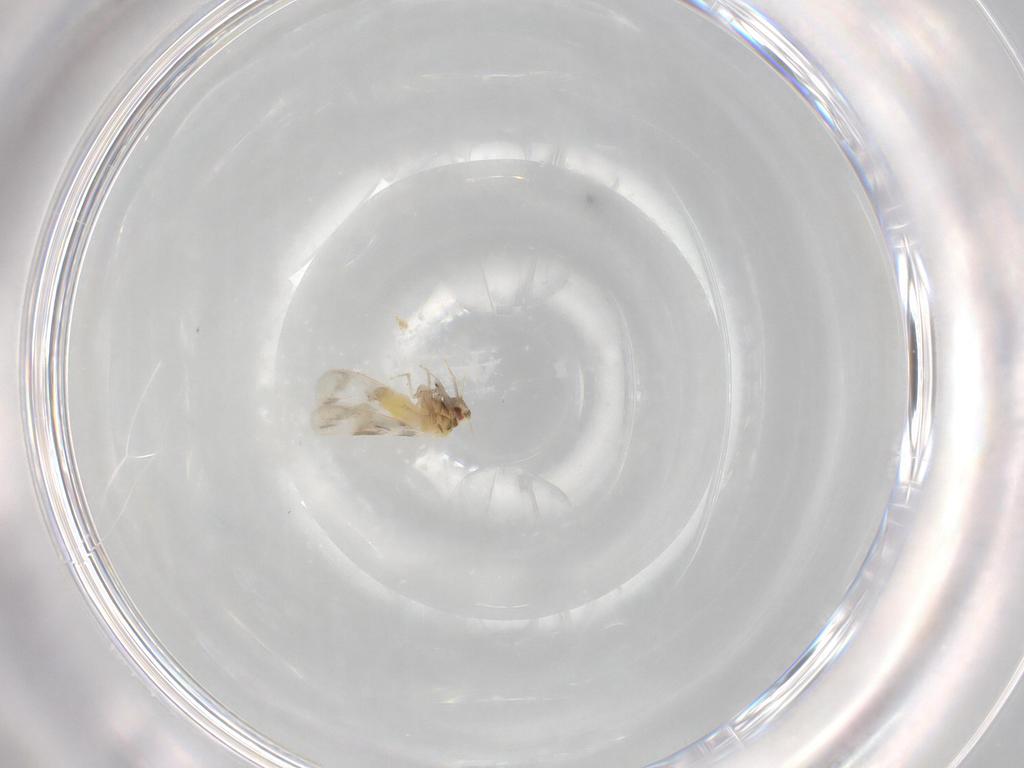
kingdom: Animalia
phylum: Arthropoda
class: Insecta
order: Hemiptera
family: Aleyrodidae
